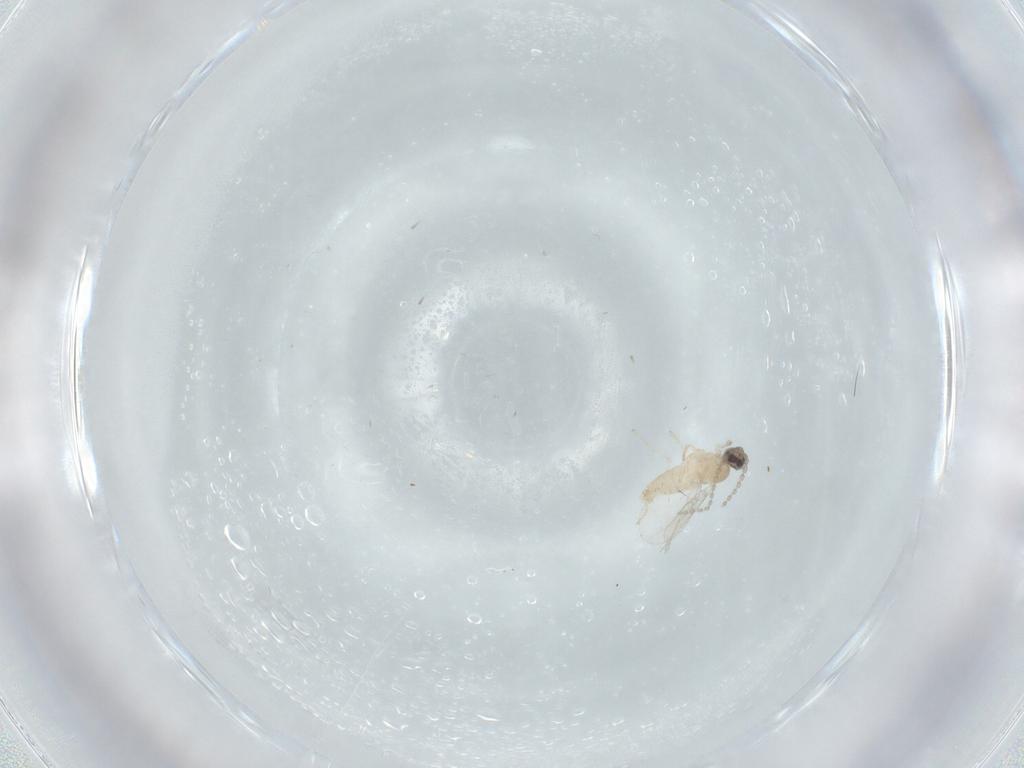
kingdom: Animalia
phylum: Arthropoda
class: Insecta
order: Diptera
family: Cecidomyiidae
